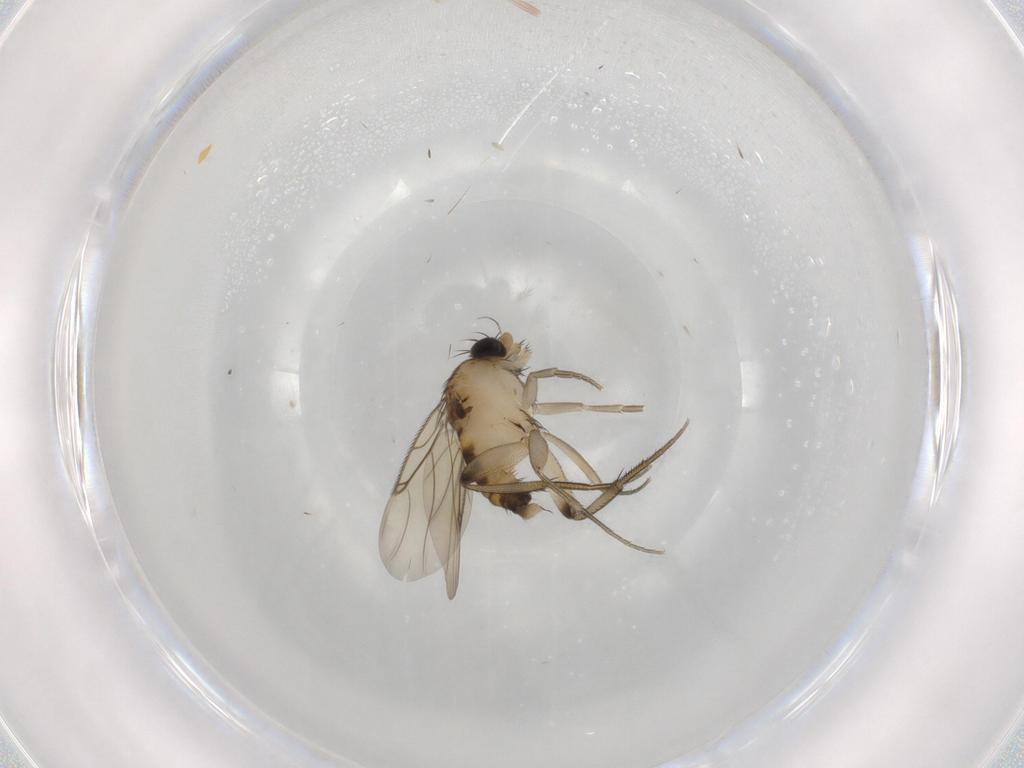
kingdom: Animalia
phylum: Arthropoda
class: Insecta
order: Diptera
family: Phoridae
